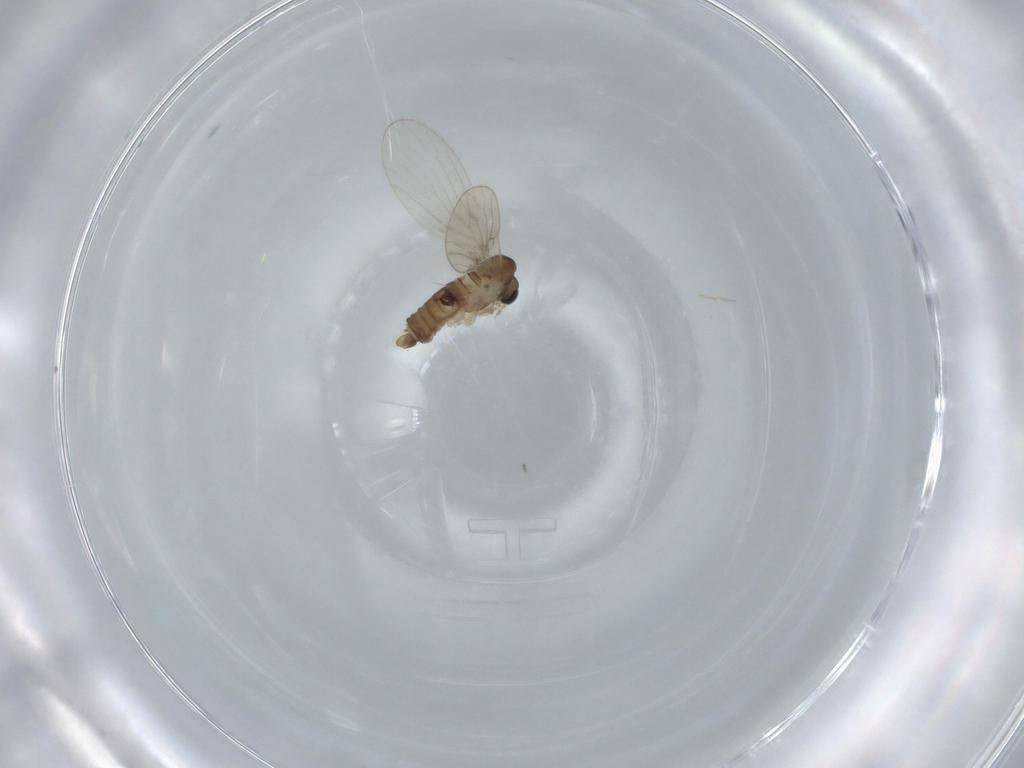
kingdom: Animalia
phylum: Arthropoda
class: Insecta
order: Diptera
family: Psychodidae
